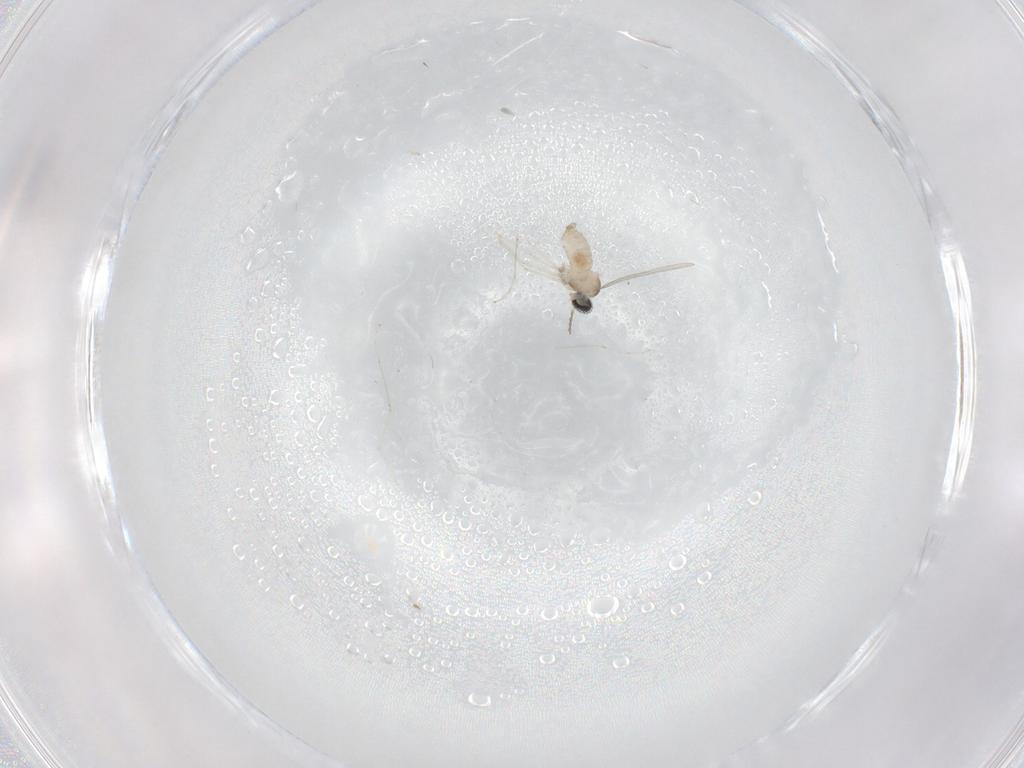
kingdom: Animalia
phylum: Arthropoda
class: Insecta
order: Diptera
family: Cecidomyiidae
